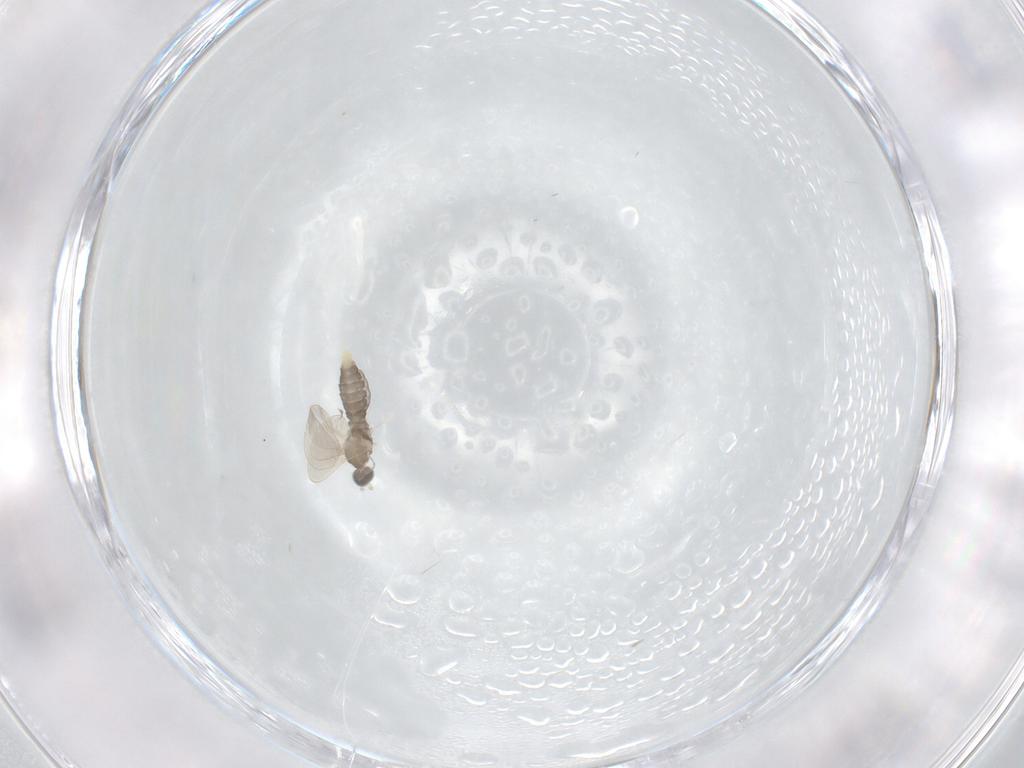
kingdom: Animalia
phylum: Arthropoda
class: Insecta
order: Diptera
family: Cecidomyiidae
